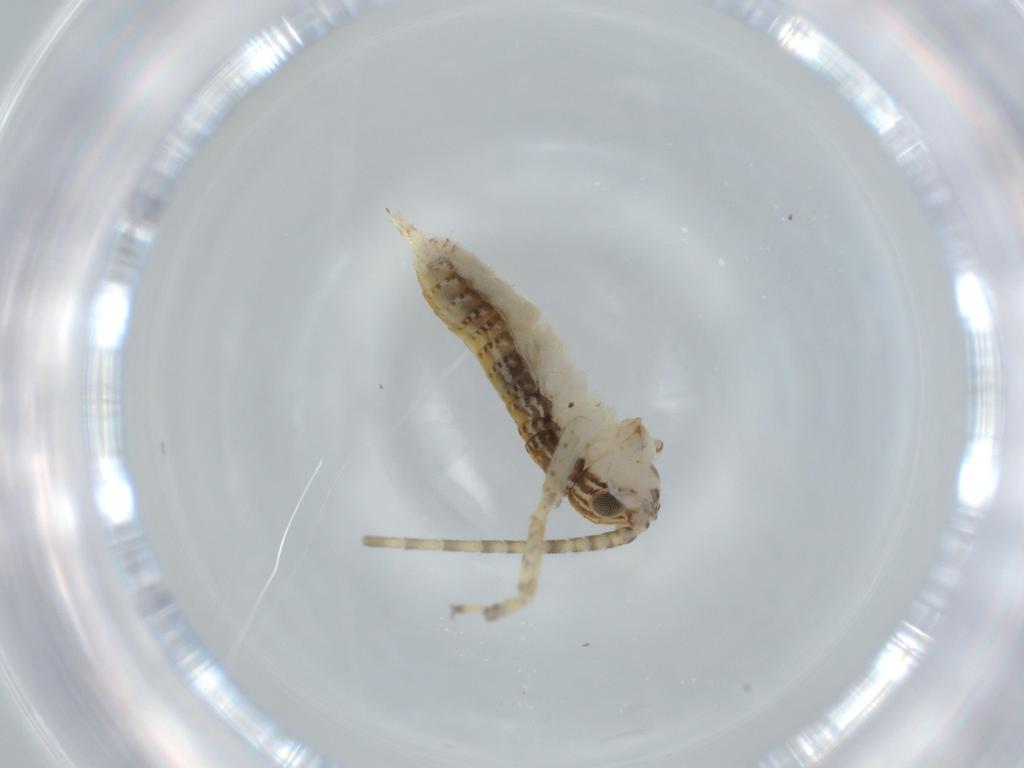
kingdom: Animalia
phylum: Arthropoda
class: Insecta
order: Orthoptera
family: Gryllidae
